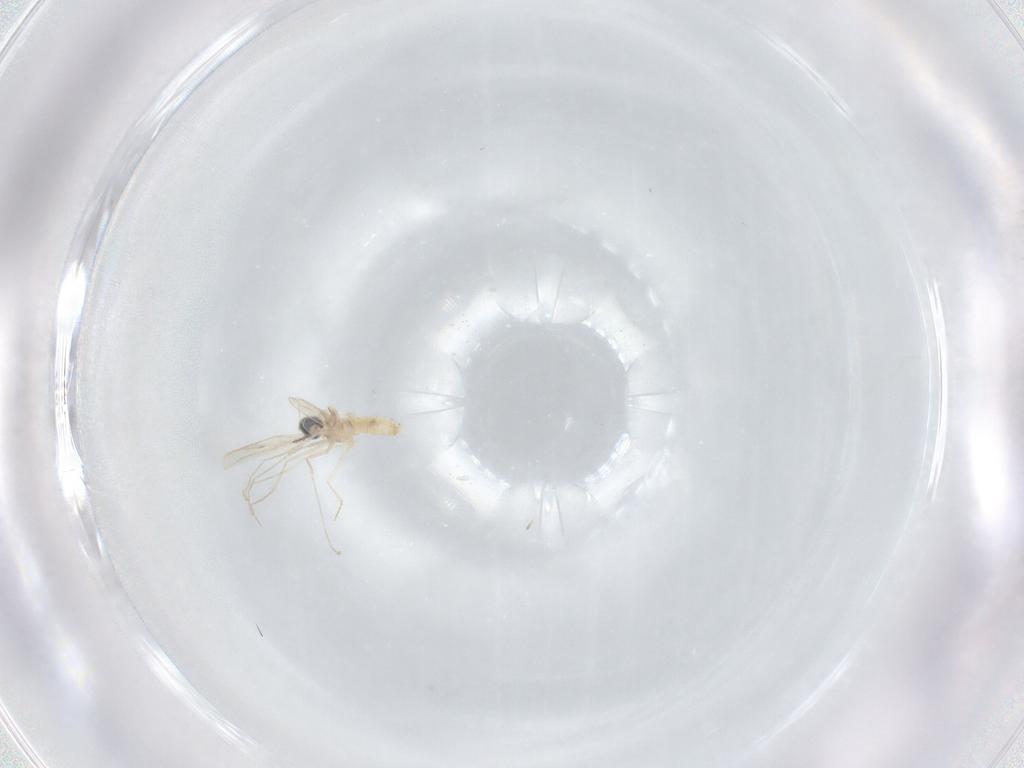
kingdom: Animalia
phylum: Arthropoda
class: Insecta
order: Diptera
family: Cecidomyiidae
